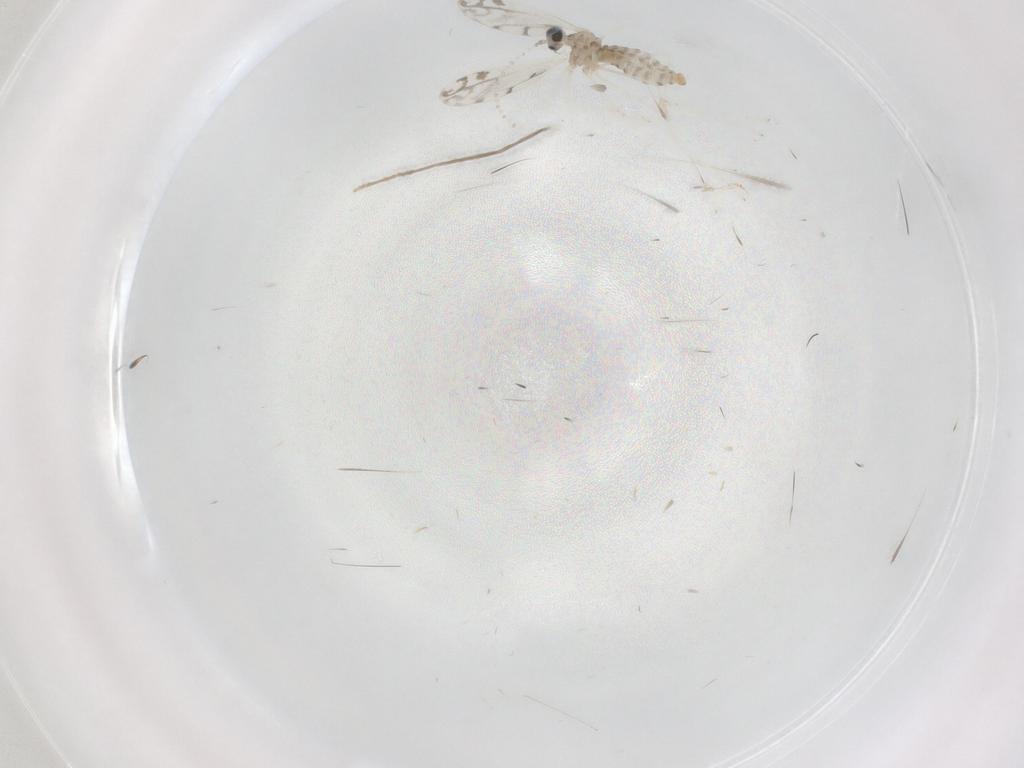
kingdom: Animalia
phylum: Arthropoda
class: Insecta
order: Diptera
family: Cecidomyiidae
